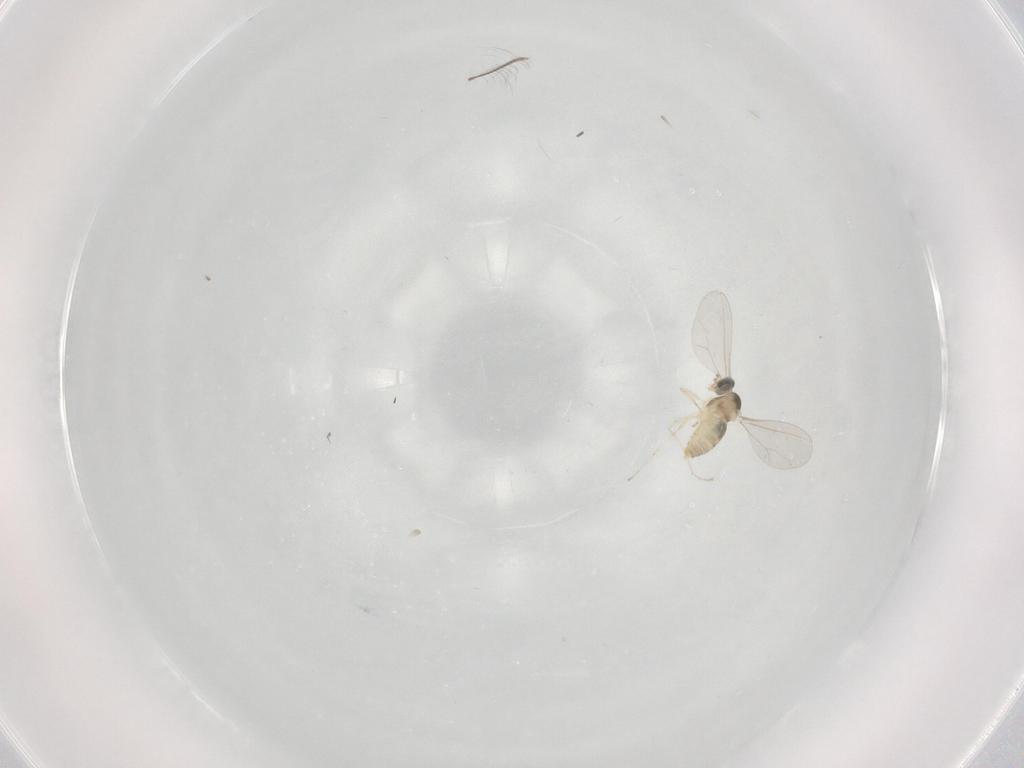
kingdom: Animalia
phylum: Arthropoda
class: Insecta
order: Diptera
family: Cecidomyiidae
